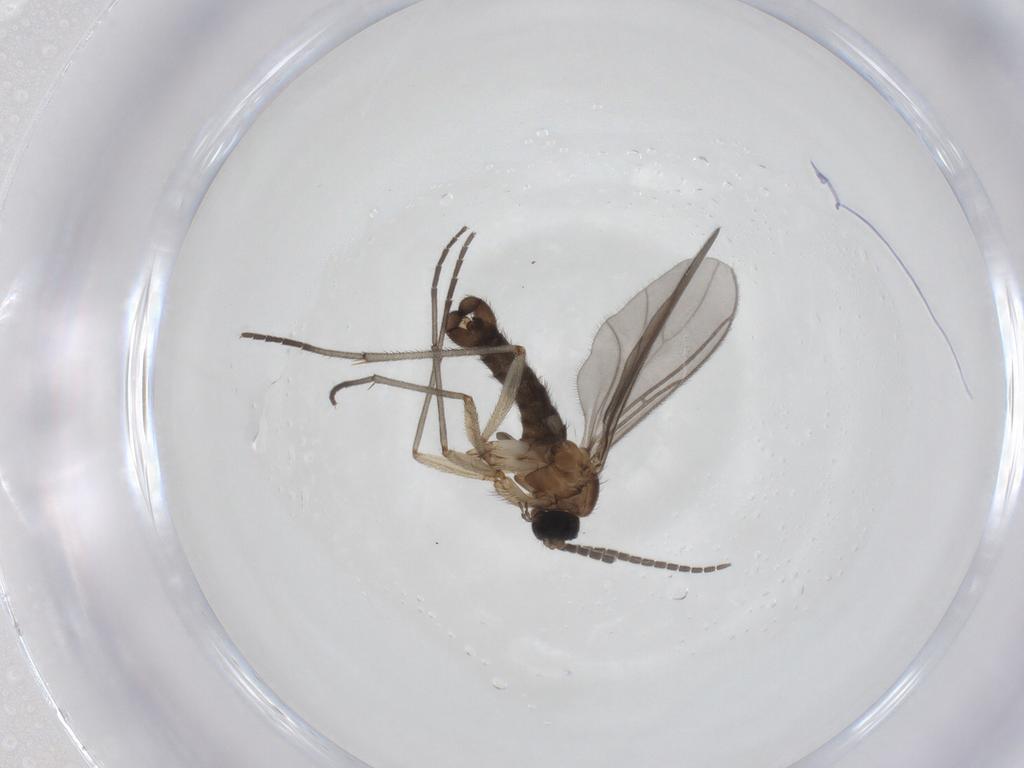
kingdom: Animalia
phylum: Arthropoda
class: Insecta
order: Diptera
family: Sciaridae
